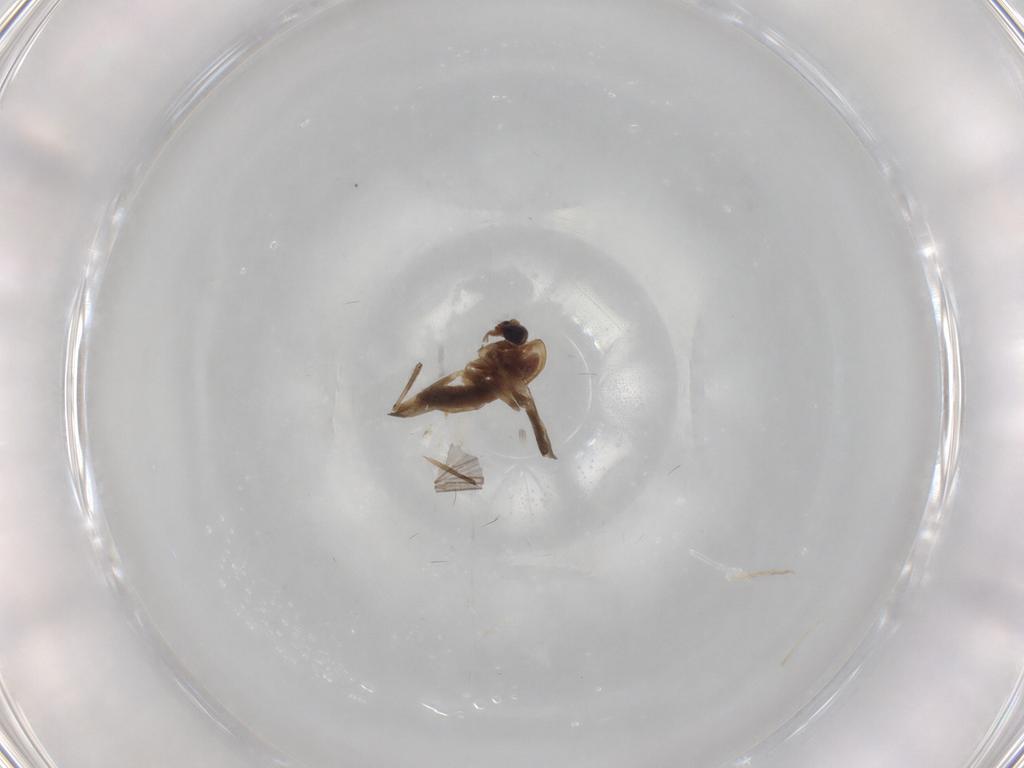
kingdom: Animalia
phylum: Arthropoda
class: Insecta
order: Diptera
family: Chironomidae
